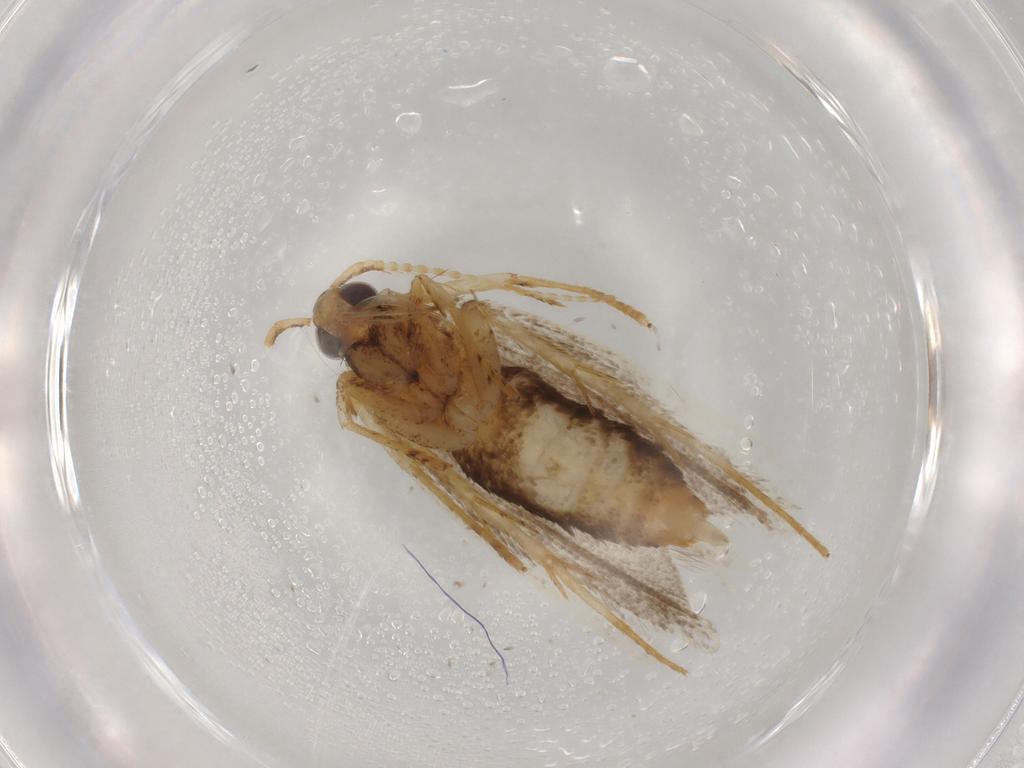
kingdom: Animalia
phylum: Arthropoda
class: Insecta
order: Lepidoptera
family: Lecithoceridae
